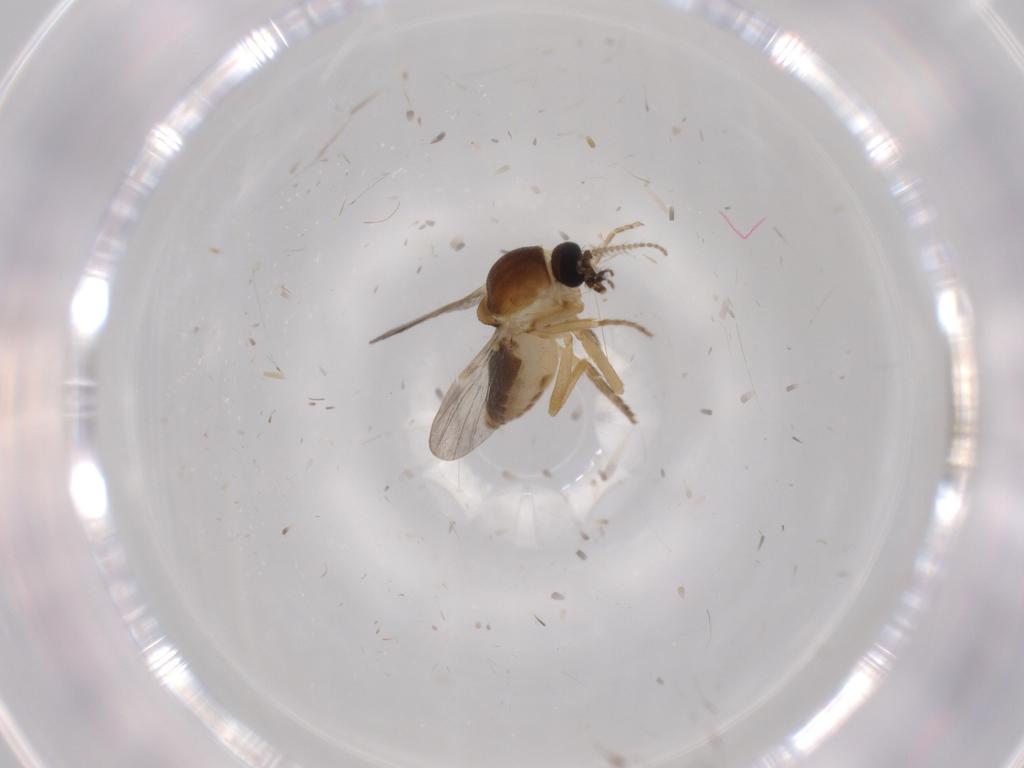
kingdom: Animalia
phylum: Arthropoda
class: Insecta
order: Diptera
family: Ceratopogonidae
